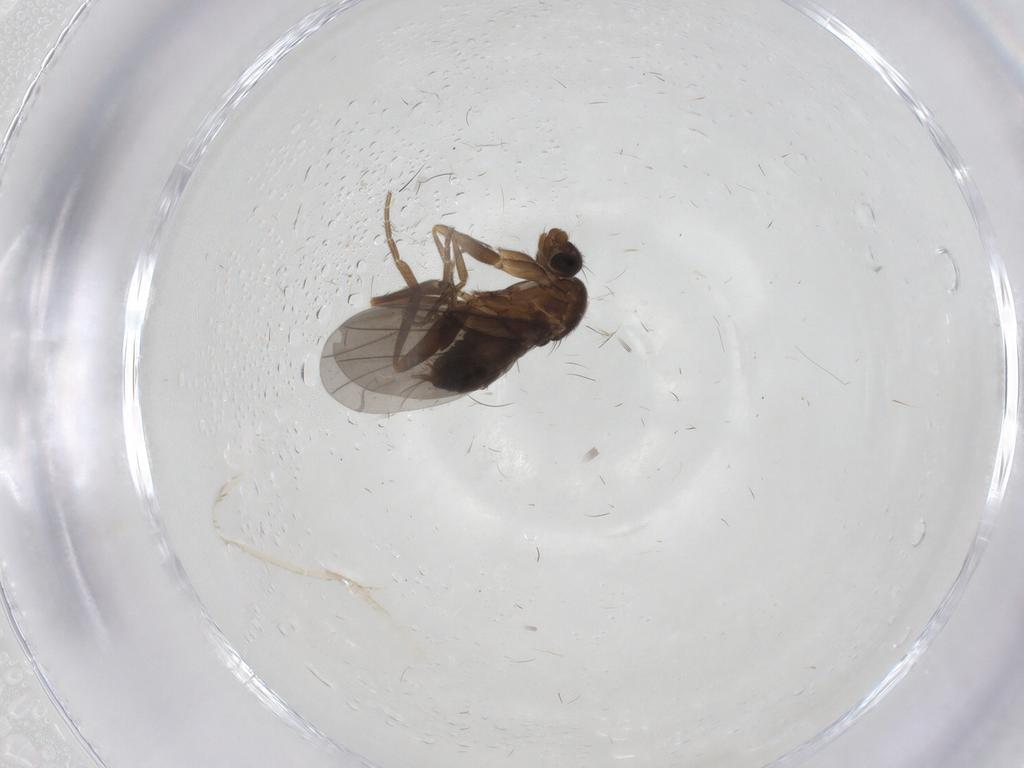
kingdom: Animalia
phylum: Arthropoda
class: Insecta
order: Diptera
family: Phoridae
